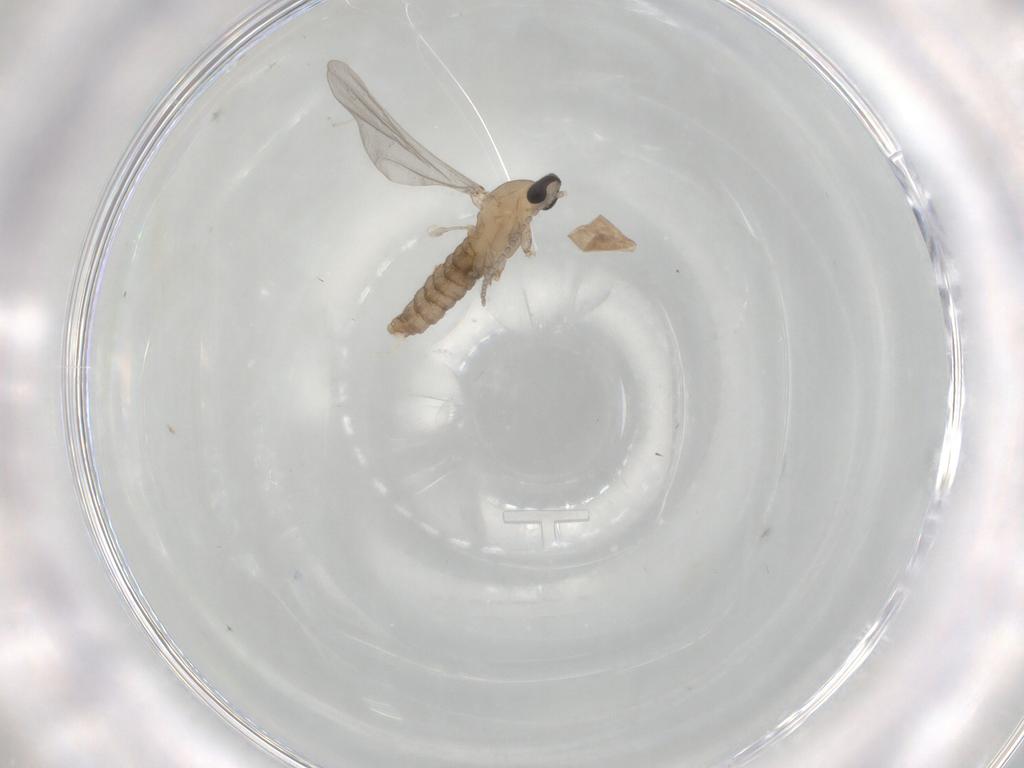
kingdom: Animalia
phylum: Arthropoda
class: Insecta
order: Diptera
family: Cecidomyiidae
